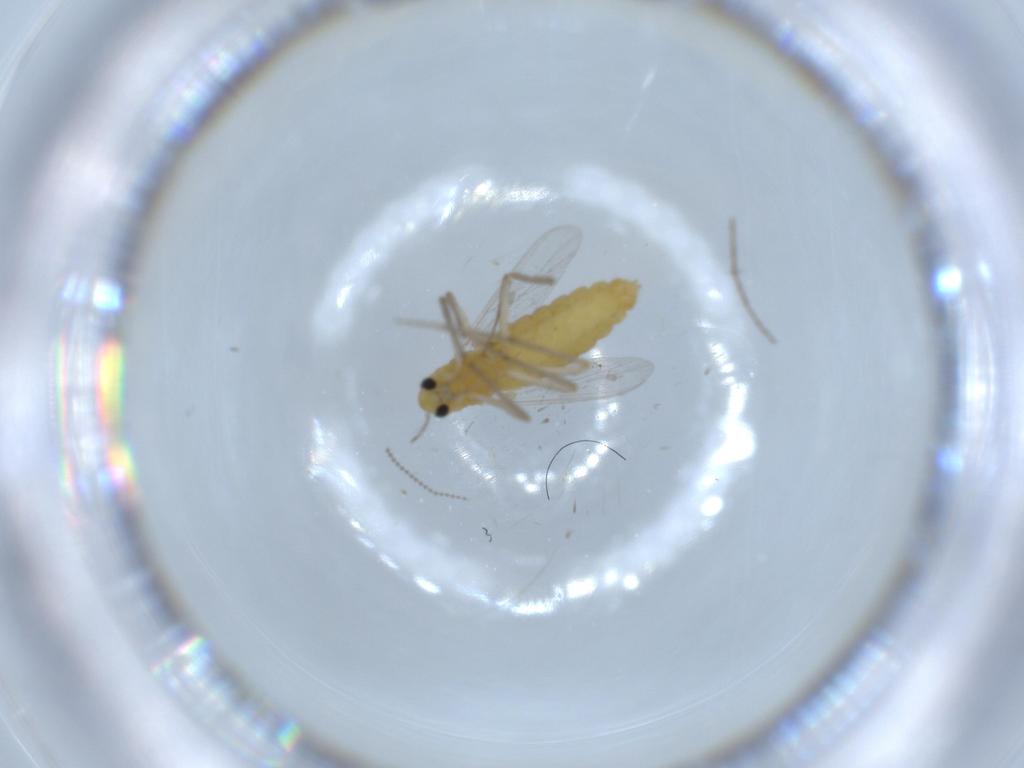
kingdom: Animalia
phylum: Arthropoda
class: Insecta
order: Diptera
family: Chironomidae
